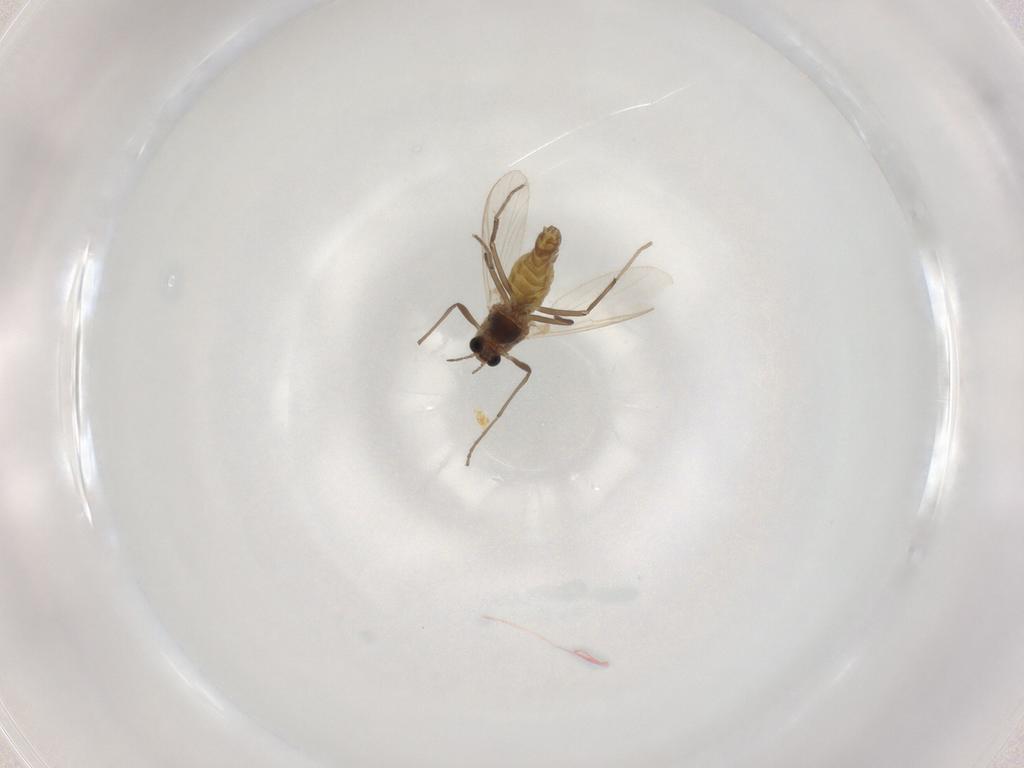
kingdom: Animalia
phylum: Arthropoda
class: Insecta
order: Diptera
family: Chironomidae
